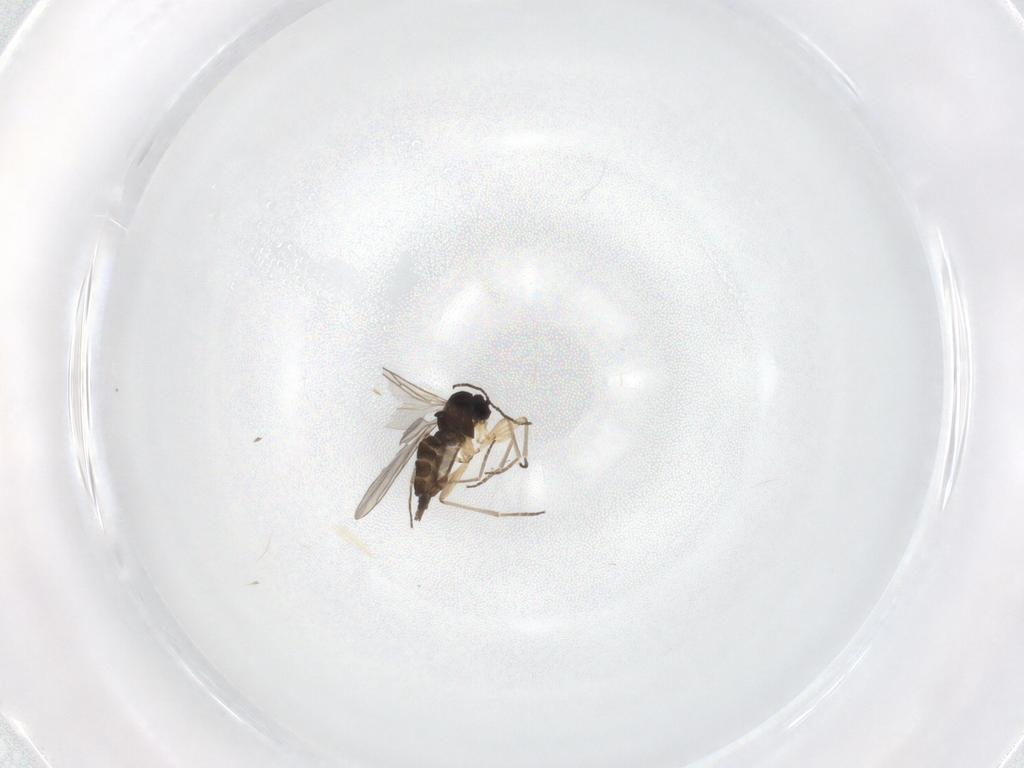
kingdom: Animalia
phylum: Arthropoda
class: Insecta
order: Diptera
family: Sciaridae
